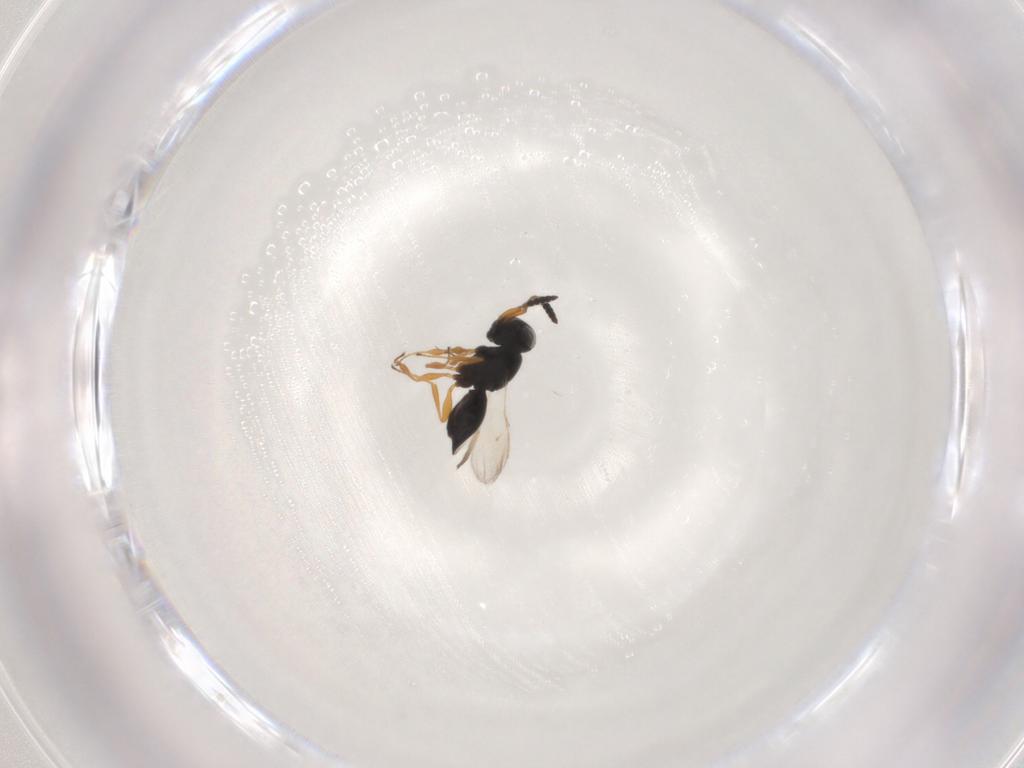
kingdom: Animalia
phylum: Arthropoda
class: Insecta
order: Hymenoptera
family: Scelionidae
